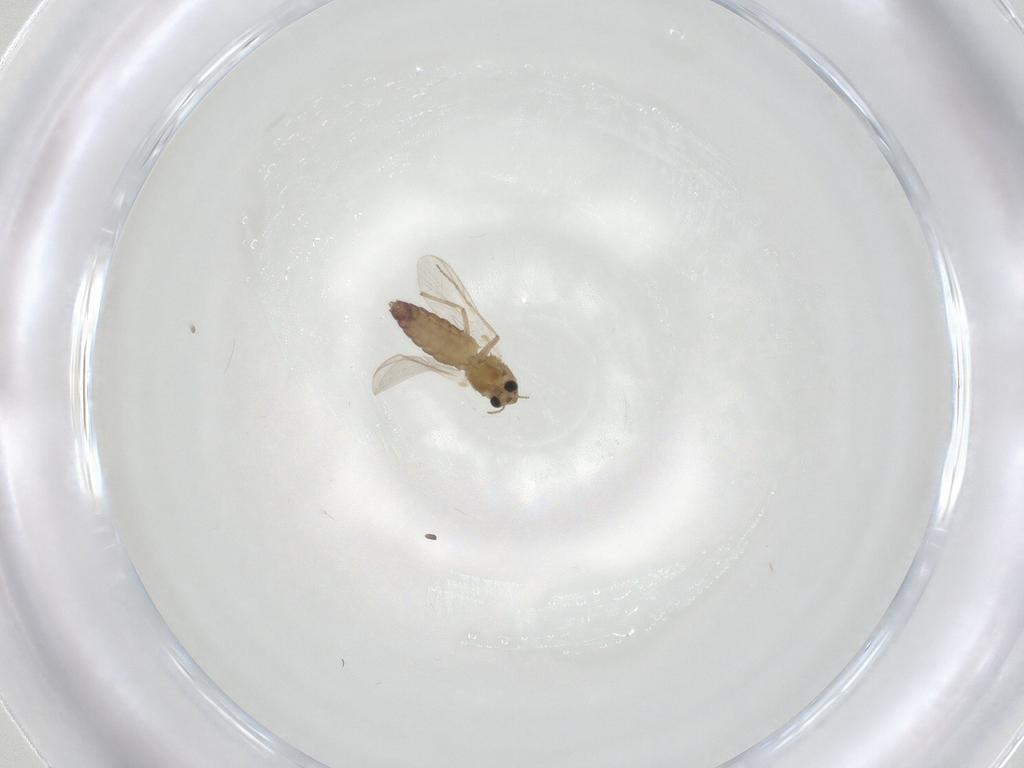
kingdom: Animalia
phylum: Arthropoda
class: Insecta
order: Diptera
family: Chironomidae
